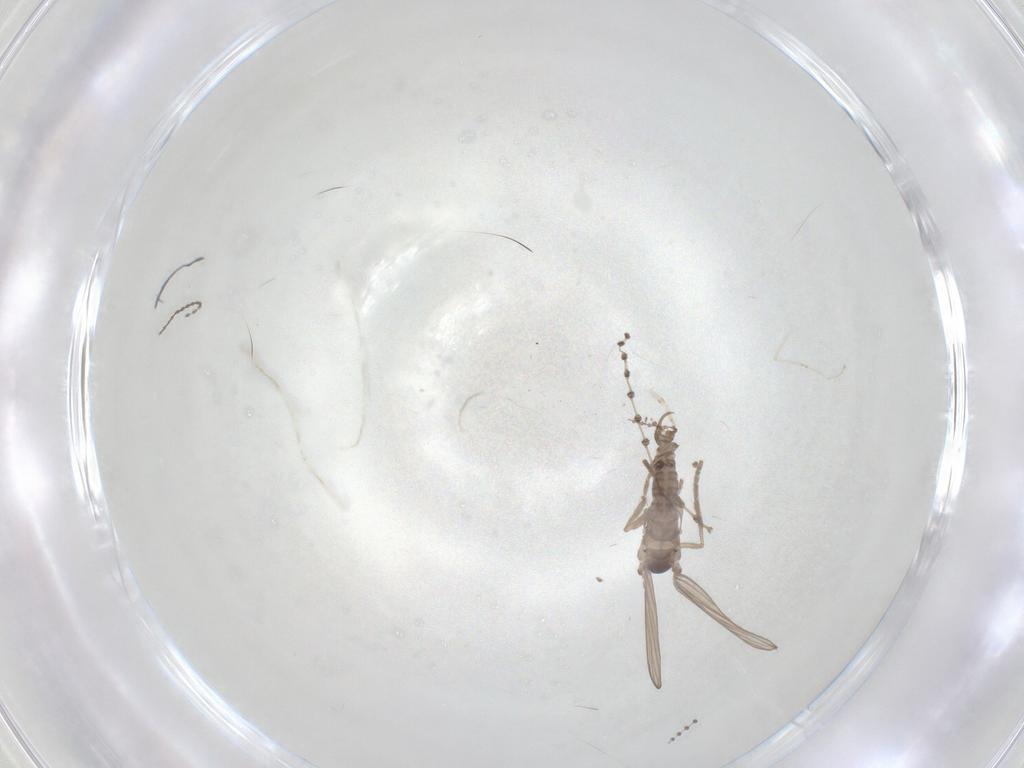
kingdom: Animalia
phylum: Arthropoda
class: Insecta
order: Diptera
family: Psychodidae
